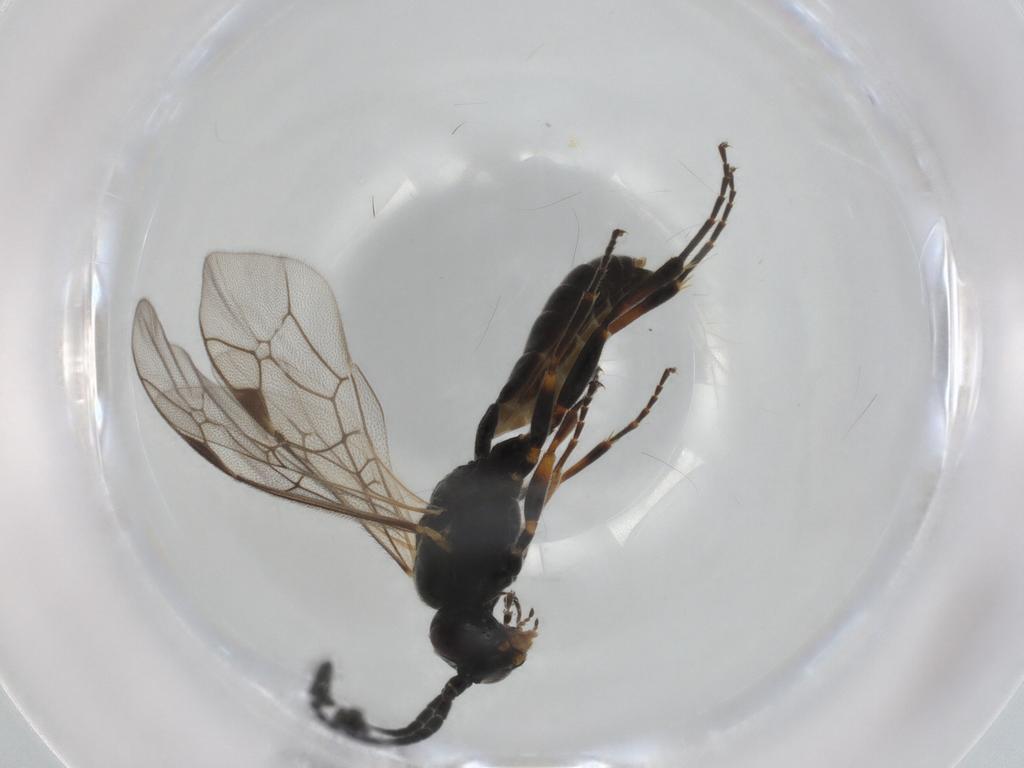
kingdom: Animalia
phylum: Arthropoda
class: Insecta
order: Hymenoptera
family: Ichneumonidae
